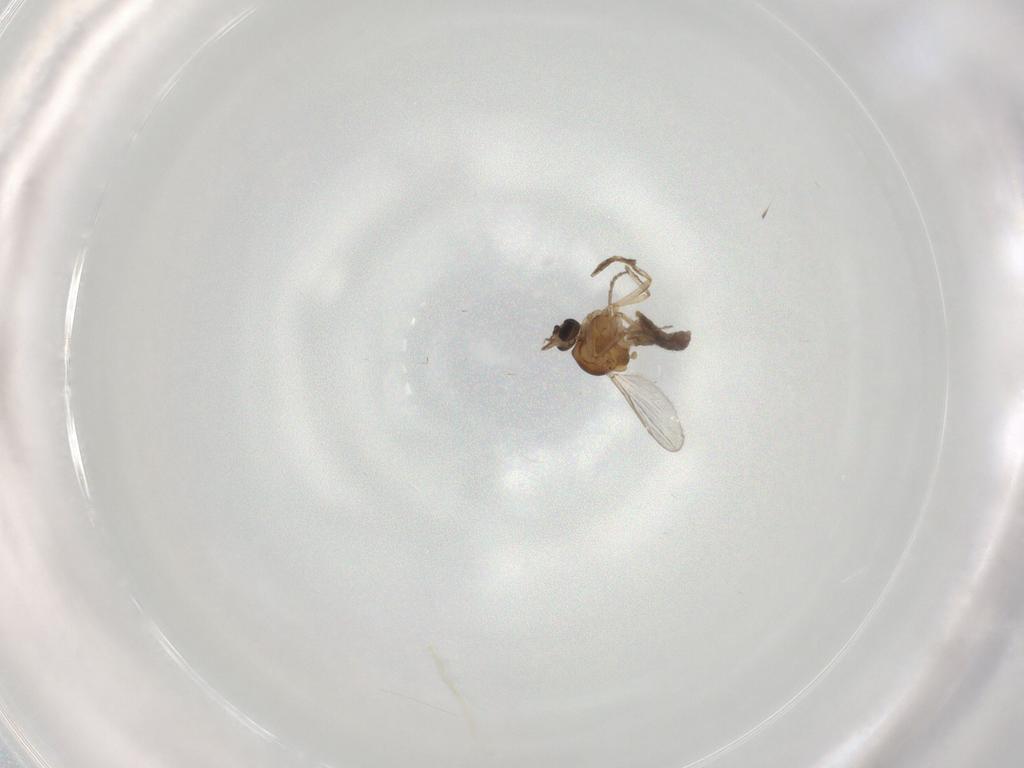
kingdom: Animalia
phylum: Arthropoda
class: Insecta
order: Diptera
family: Ceratopogonidae
